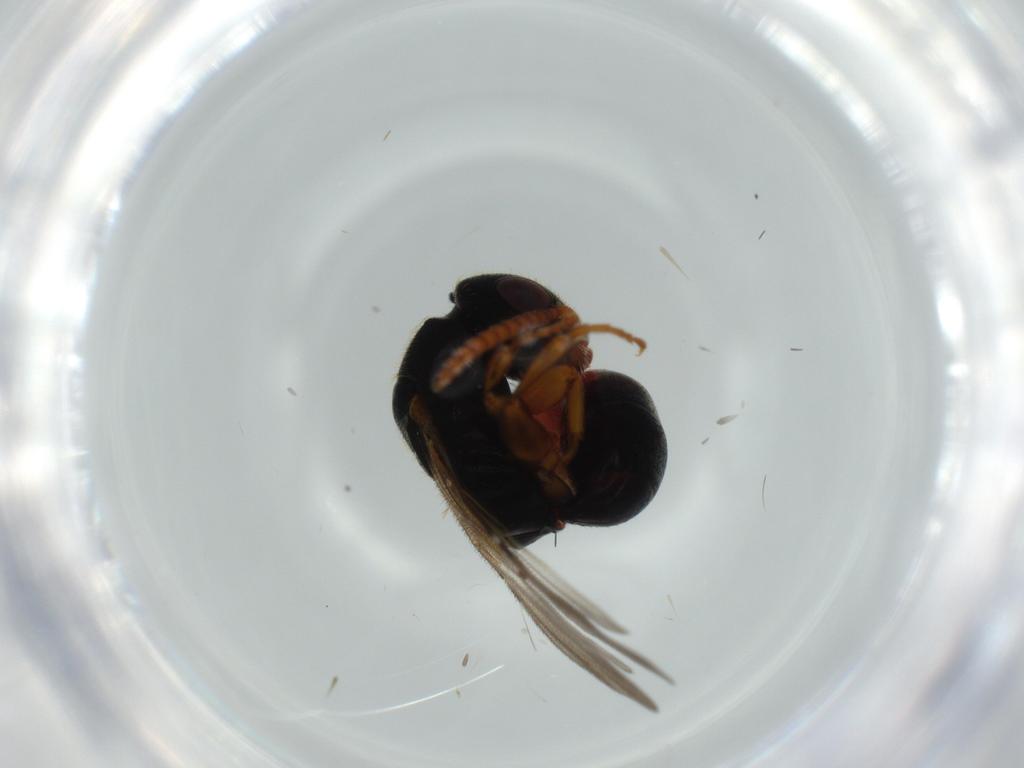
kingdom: Animalia
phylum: Arthropoda
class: Insecta
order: Hymenoptera
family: Bethylidae
